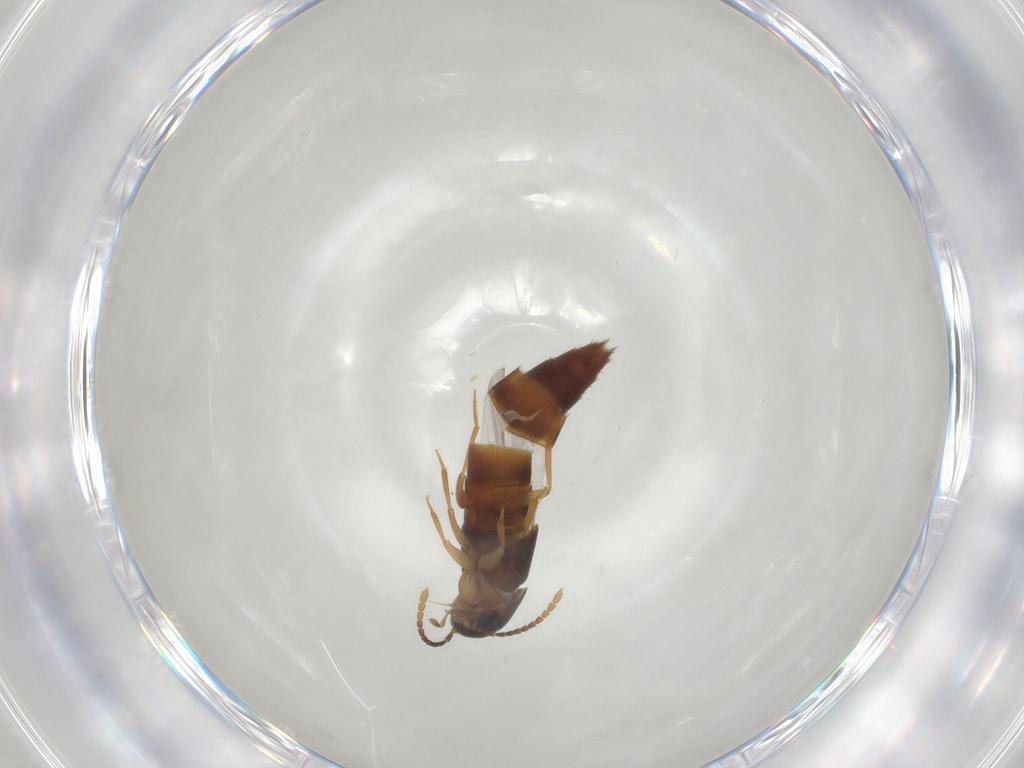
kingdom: Animalia
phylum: Arthropoda
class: Insecta
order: Coleoptera
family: Staphylinidae
